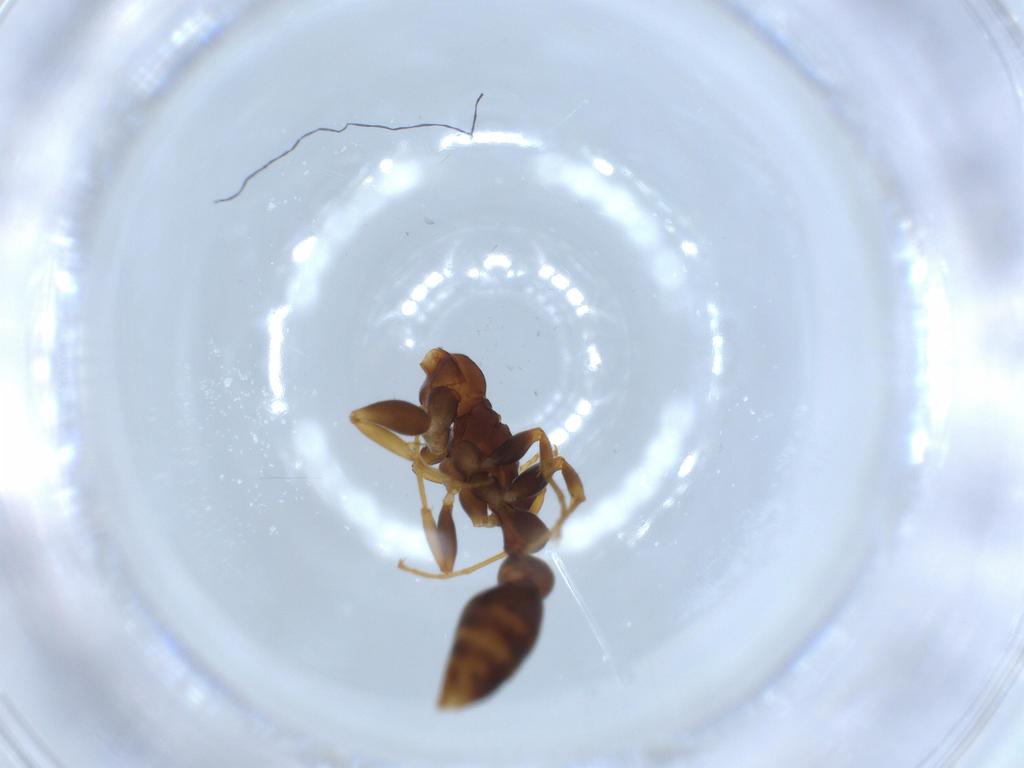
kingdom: Animalia
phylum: Arthropoda
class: Insecta
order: Hymenoptera
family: Formicidae
